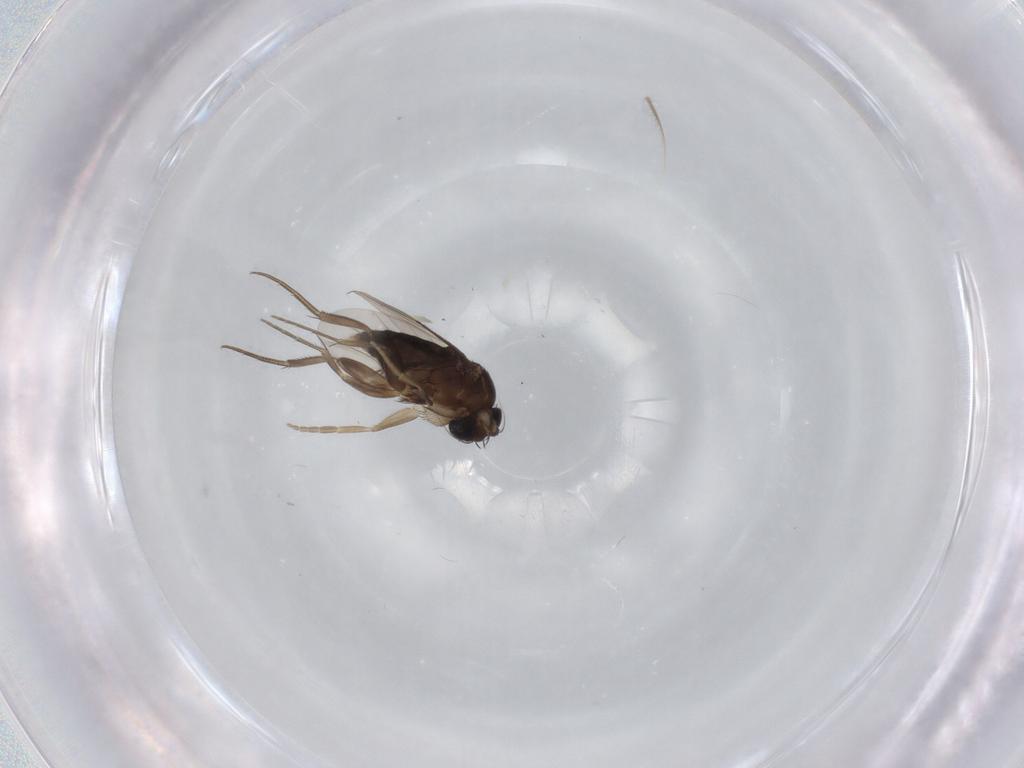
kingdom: Animalia
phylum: Arthropoda
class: Insecta
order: Diptera
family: Phoridae
